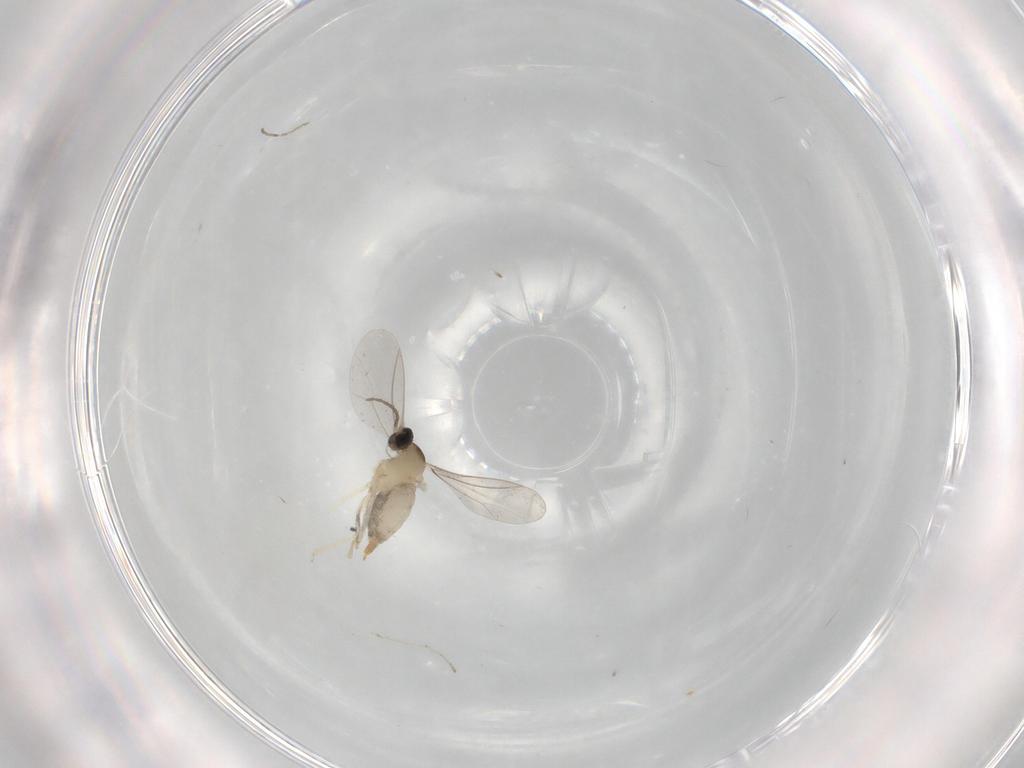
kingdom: Animalia
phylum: Arthropoda
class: Insecta
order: Diptera
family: Cecidomyiidae
